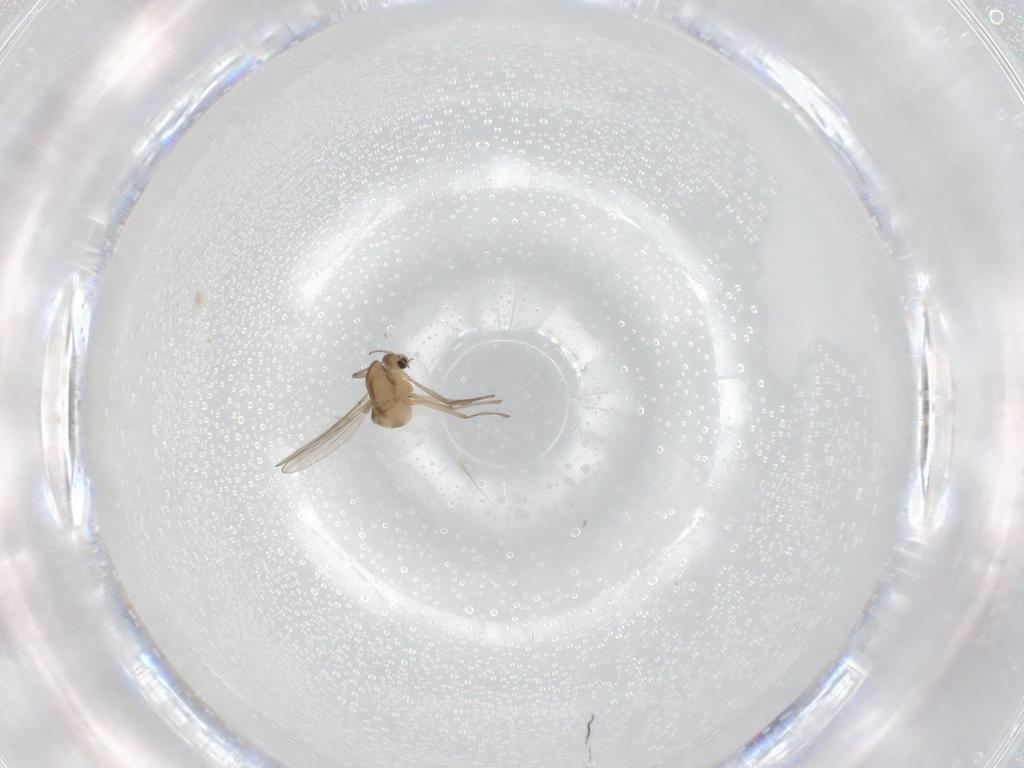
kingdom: Animalia
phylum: Arthropoda
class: Insecta
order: Diptera
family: Chironomidae
